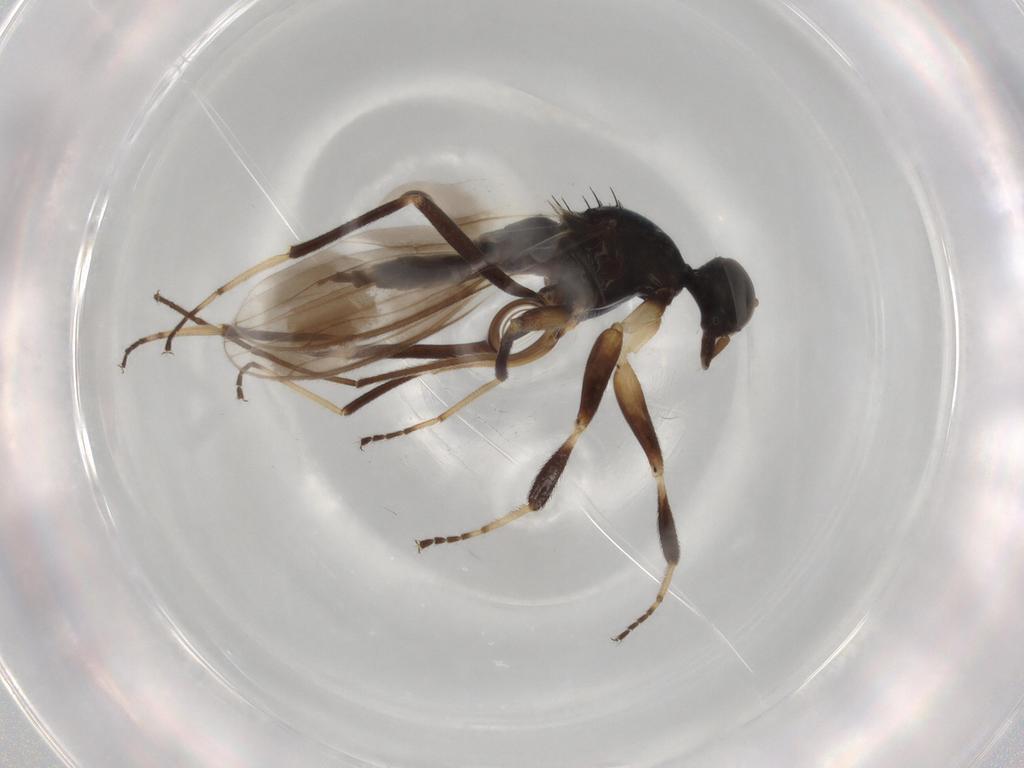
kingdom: Animalia
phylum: Arthropoda
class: Insecta
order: Diptera
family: Hybotidae
